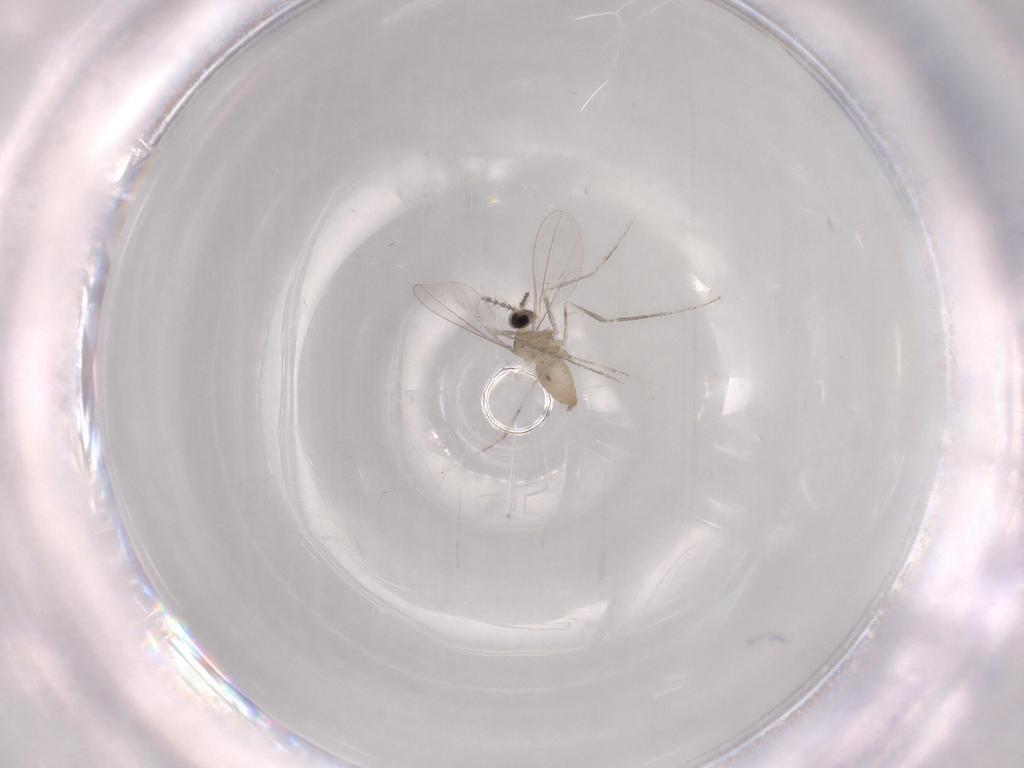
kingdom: Animalia
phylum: Arthropoda
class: Insecta
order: Diptera
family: Cecidomyiidae
